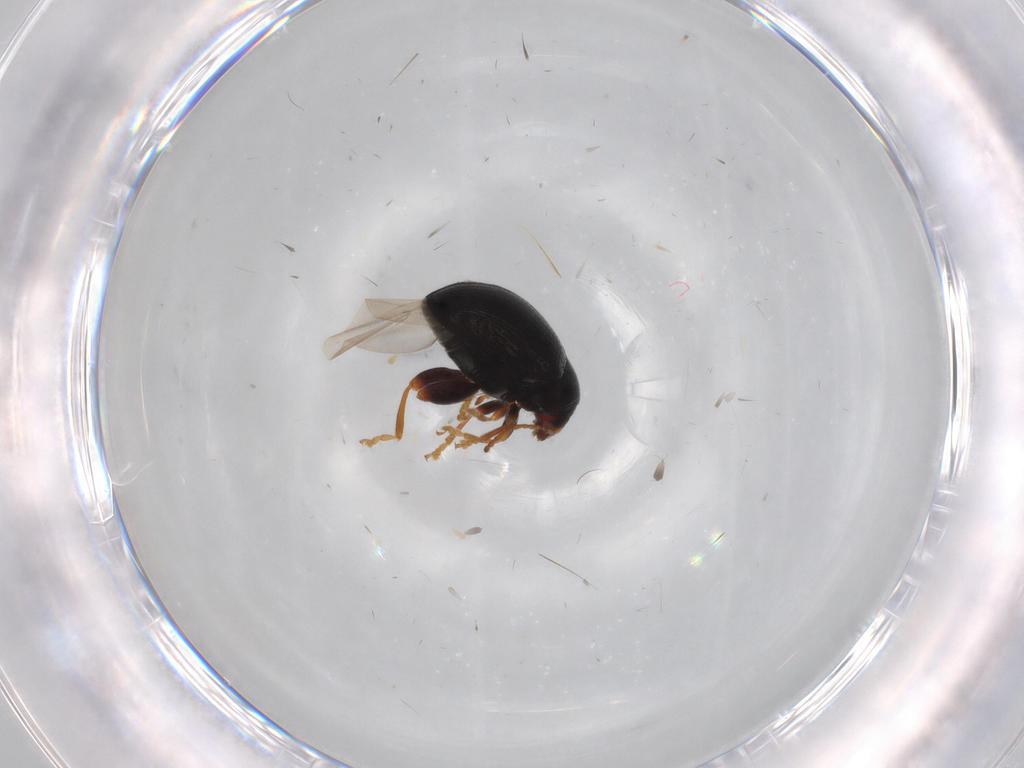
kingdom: Animalia
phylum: Arthropoda
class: Insecta
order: Coleoptera
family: Chrysomelidae
